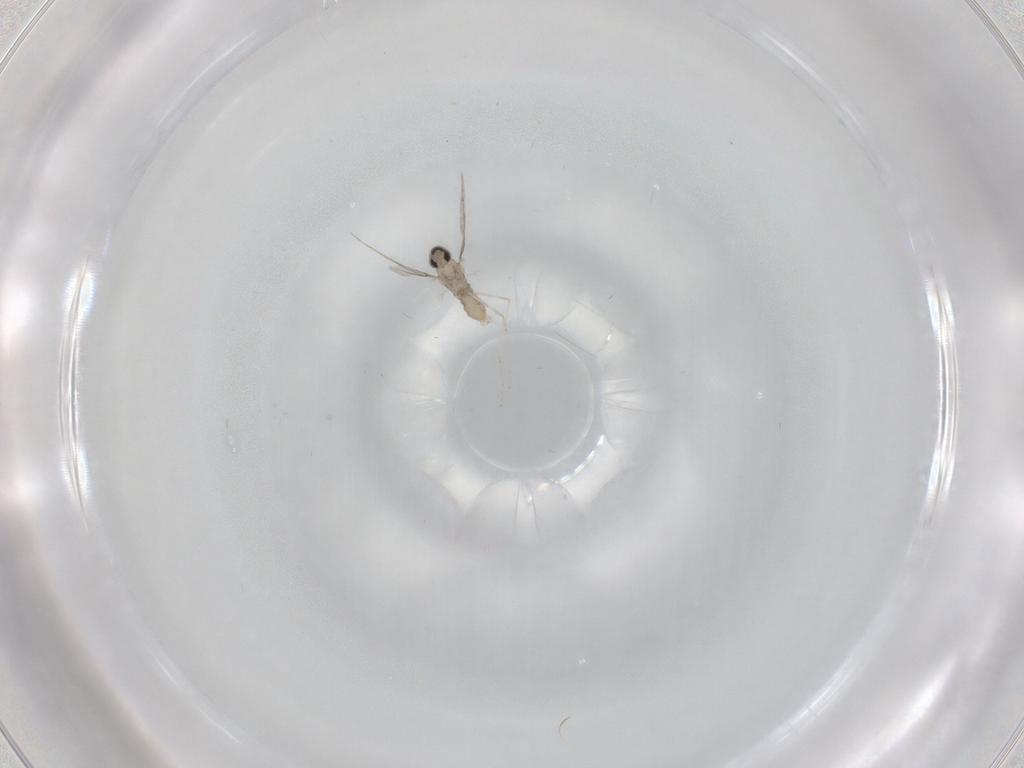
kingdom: Animalia
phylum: Arthropoda
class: Insecta
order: Diptera
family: Cecidomyiidae
